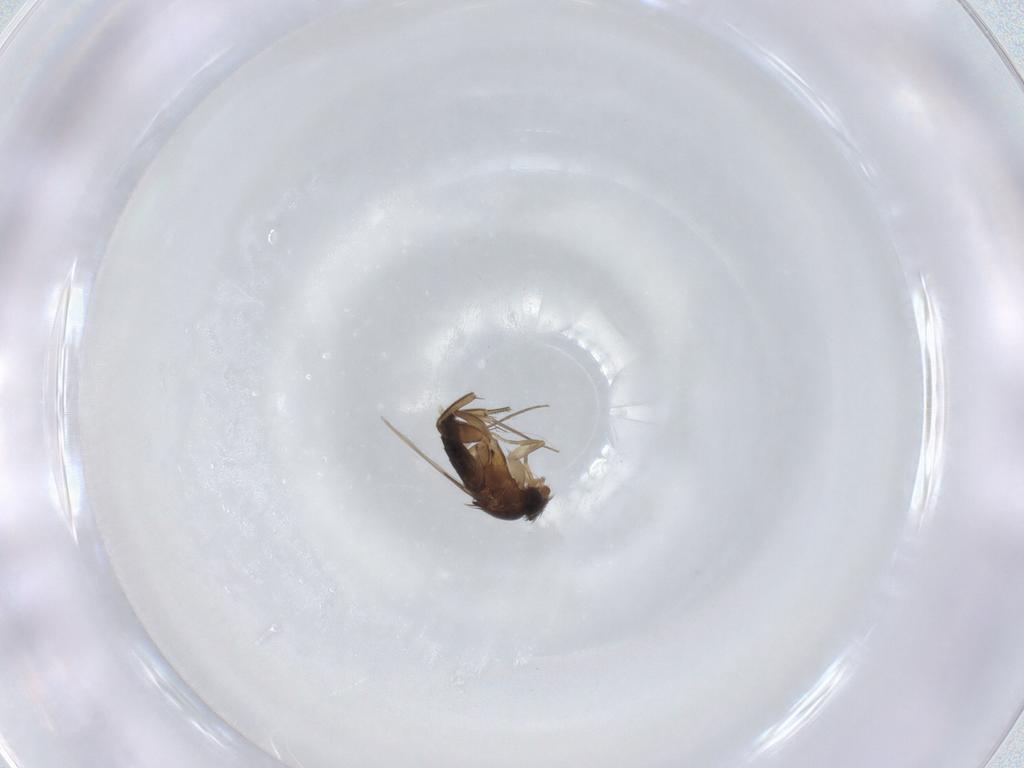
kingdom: Animalia
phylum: Arthropoda
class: Insecta
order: Diptera
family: Phoridae
